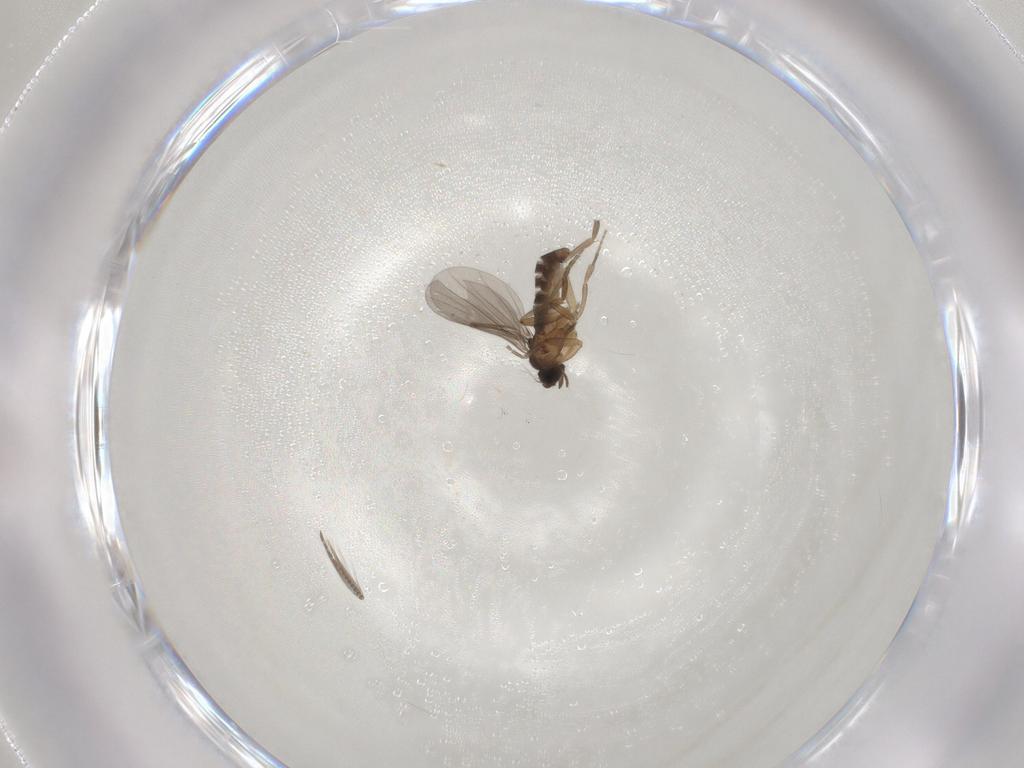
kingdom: Animalia
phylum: Arthropoda
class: Insecta
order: Diptera
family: Phoridae
